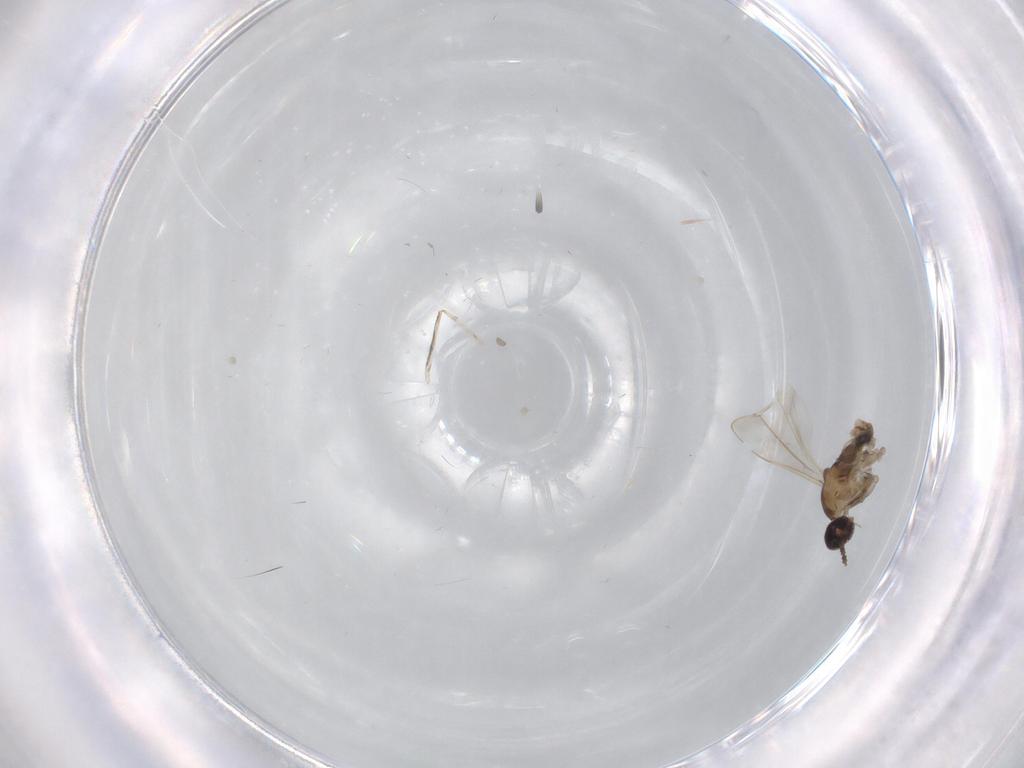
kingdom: Animalia
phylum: Arthropoda
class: Insecta
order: Diptera
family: Cecidomyiidae
